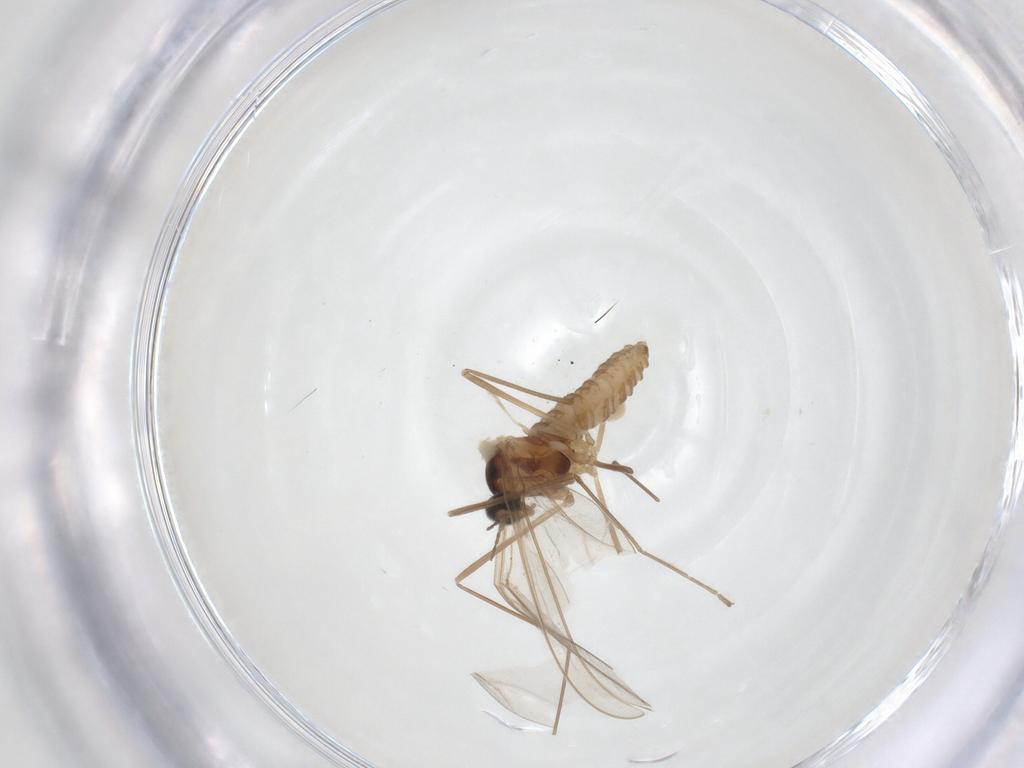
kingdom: Animalia
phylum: Arthropoda
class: Insecta
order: Diptera
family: Cecidomyiidae
